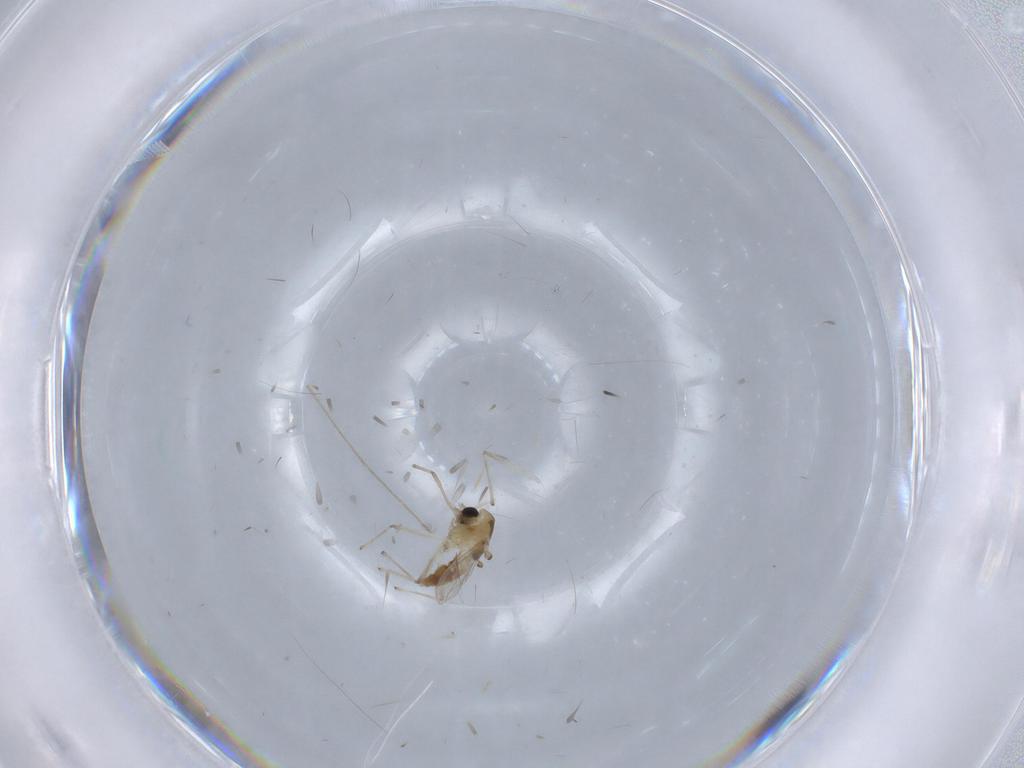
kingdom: Animalia
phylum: Arthropoda
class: Insecta
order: Diptera
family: Chironomidae
